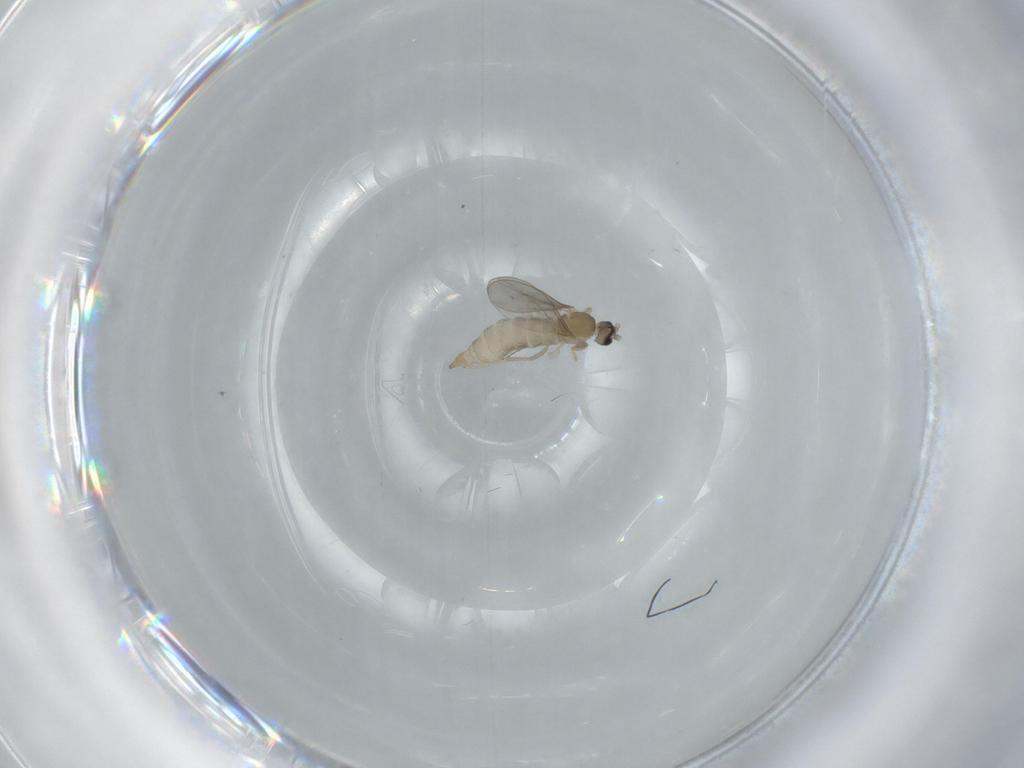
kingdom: Animalia
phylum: Arthropoda
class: Insecta
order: Diptera
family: Cecidomyiidae
